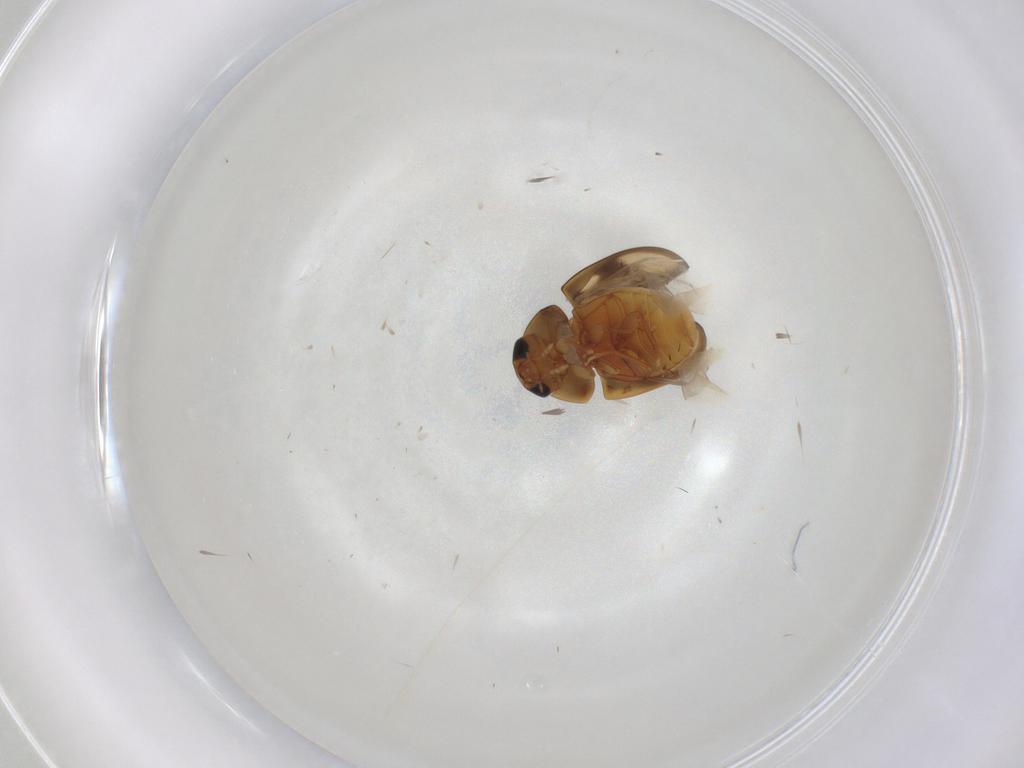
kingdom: Animalia
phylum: Arthropoda
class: Insecta
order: Coleoptera
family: Phalacridae
